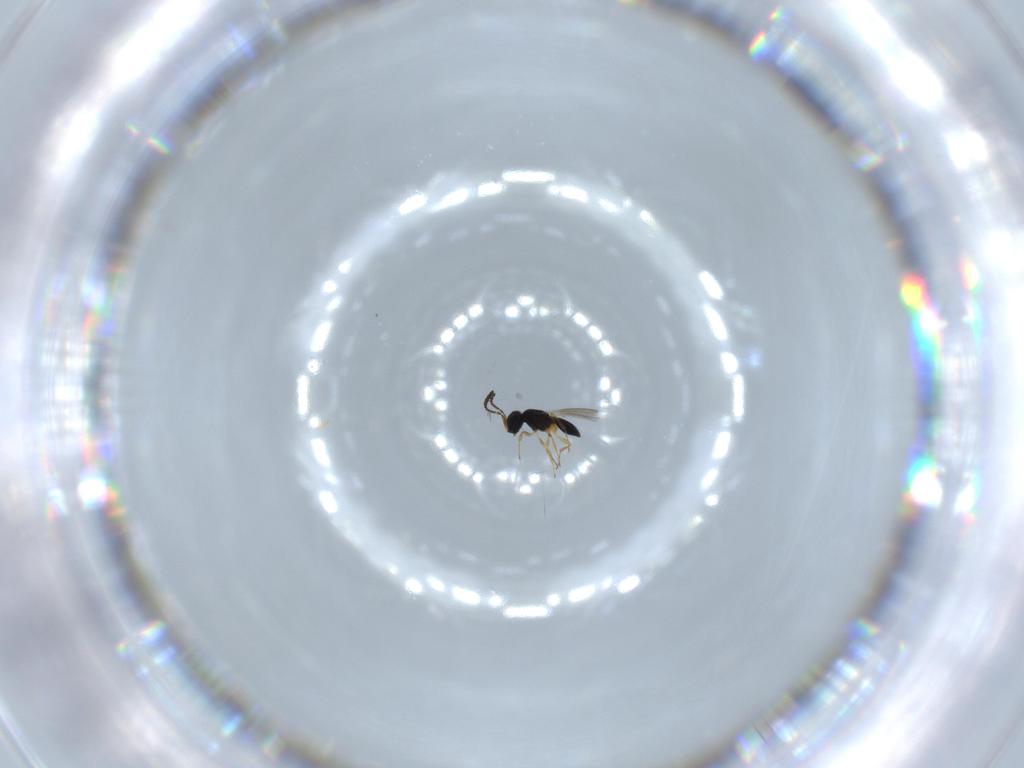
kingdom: Animalia
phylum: Arthropoda
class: Insecta
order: Hymenoptera
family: Scelionidae
